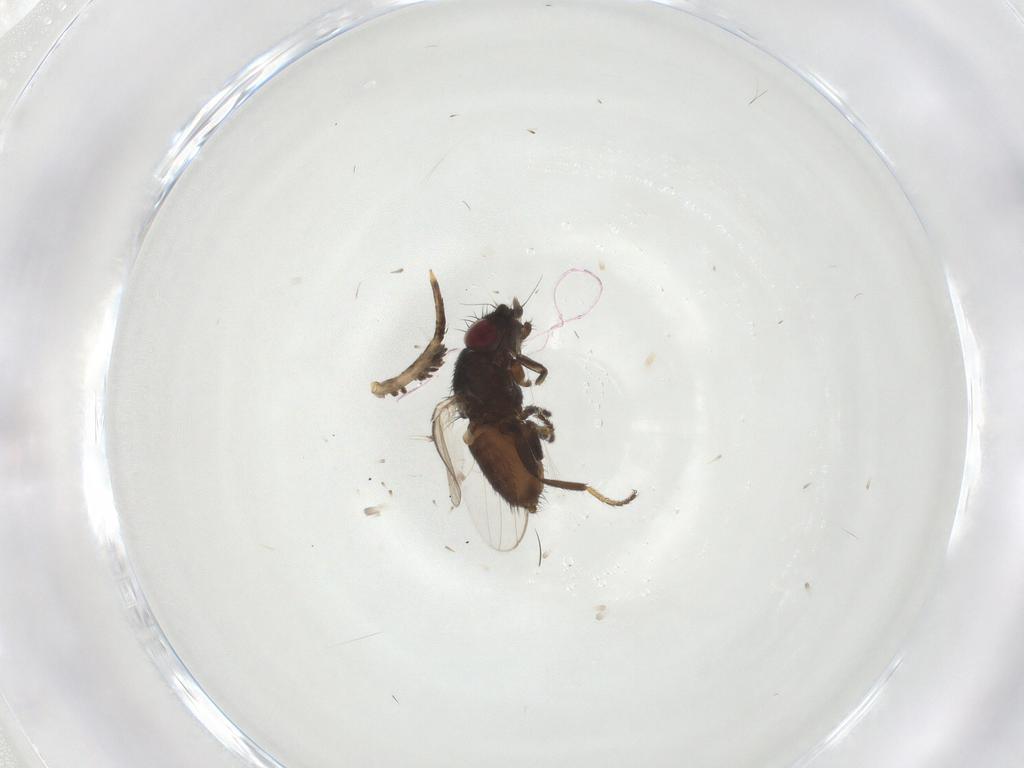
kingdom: Animalia
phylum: Arthropoda
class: Insecta
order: Diptera
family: Milichiidae
